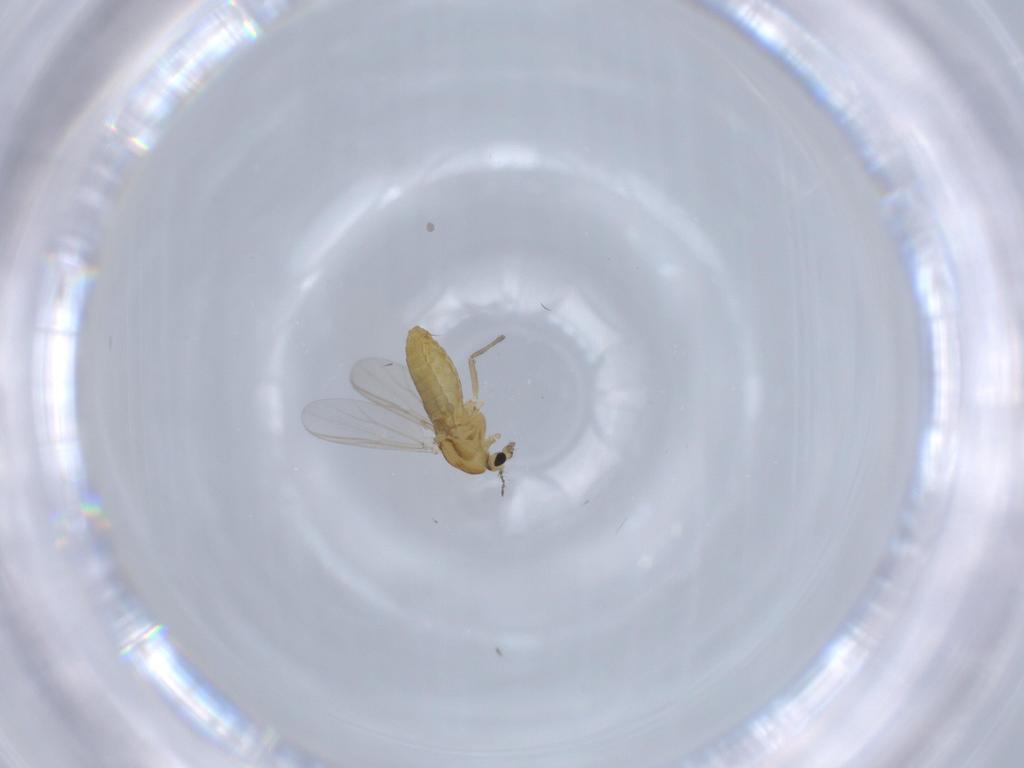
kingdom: Animalia
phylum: Arthropoda
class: Insecta
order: Diptera
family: Chironomidae
